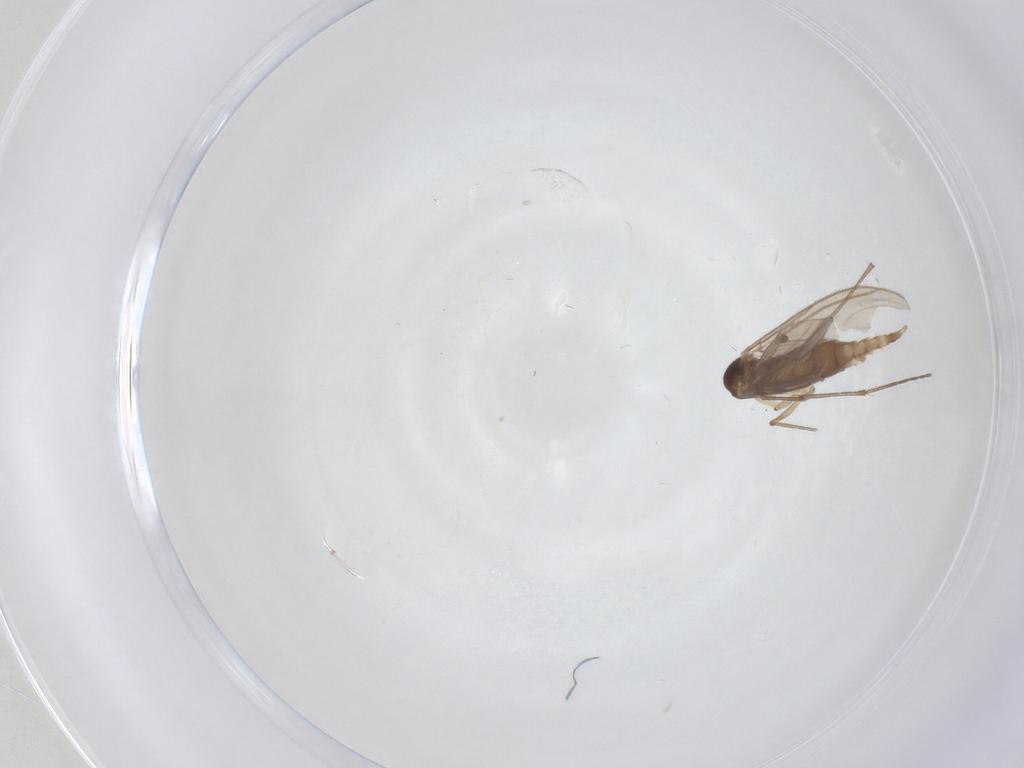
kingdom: Animalia
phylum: Arthropoda
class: Insecta
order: Diptera
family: Sciaridae
